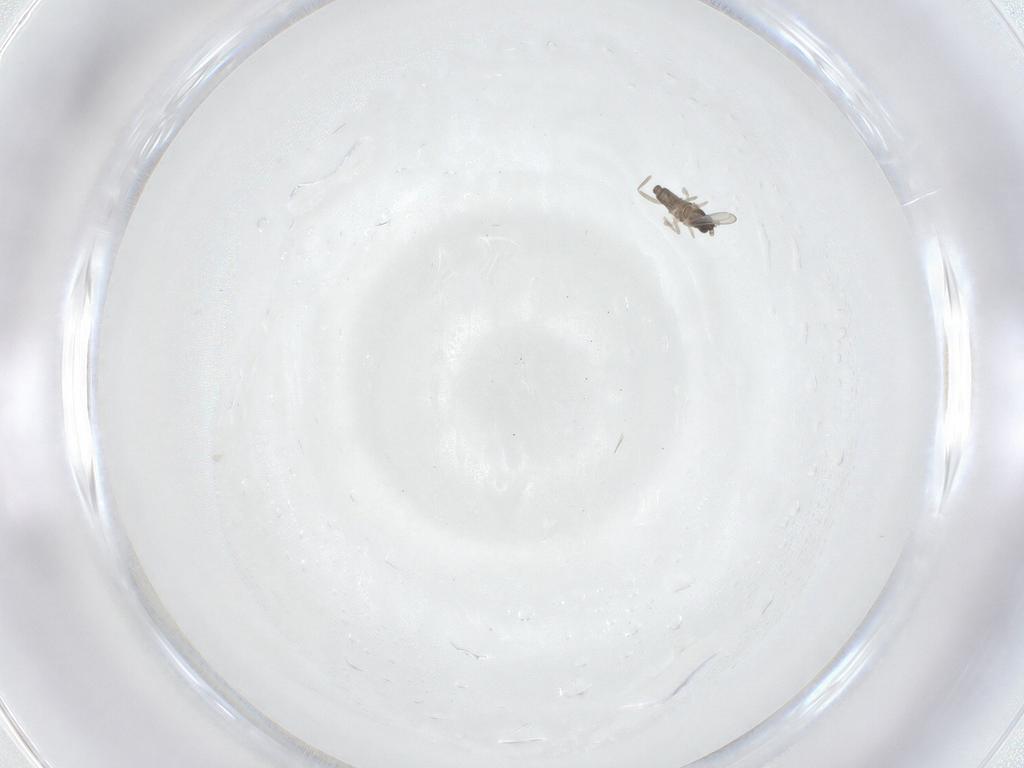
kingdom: Animalia
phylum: Arthropoda
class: Insecta
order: Diptera
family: Cecidomyiidae
